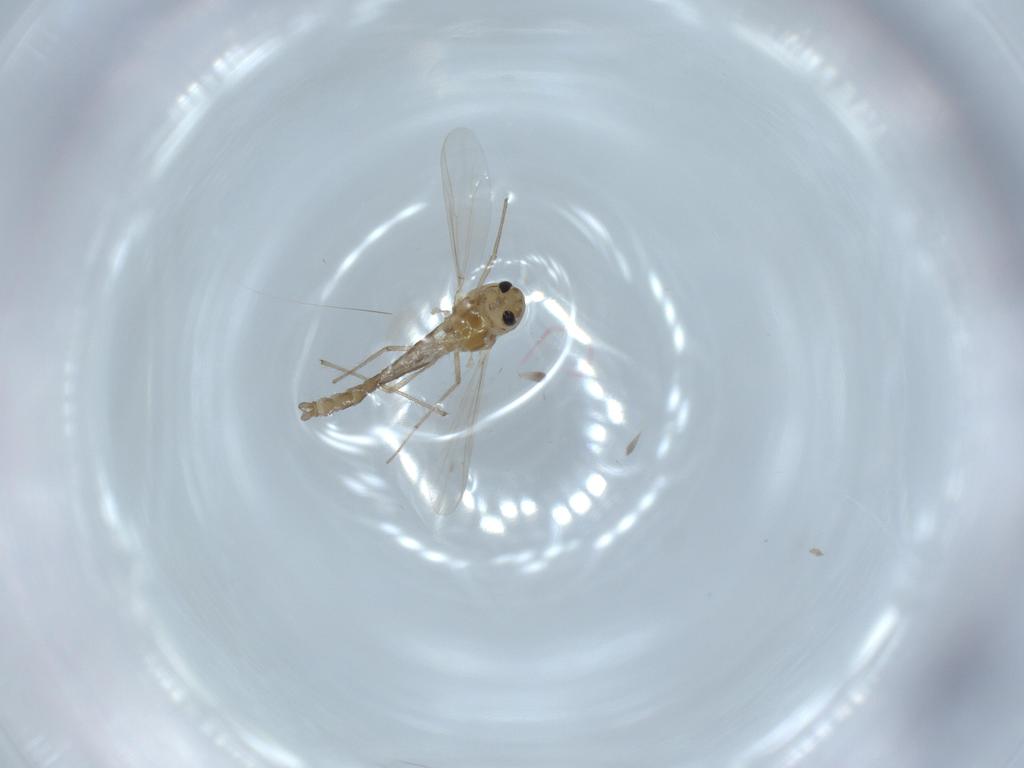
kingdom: Animalia
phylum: Arthropoda
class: Insecta
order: Diptera
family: Chironomidae
